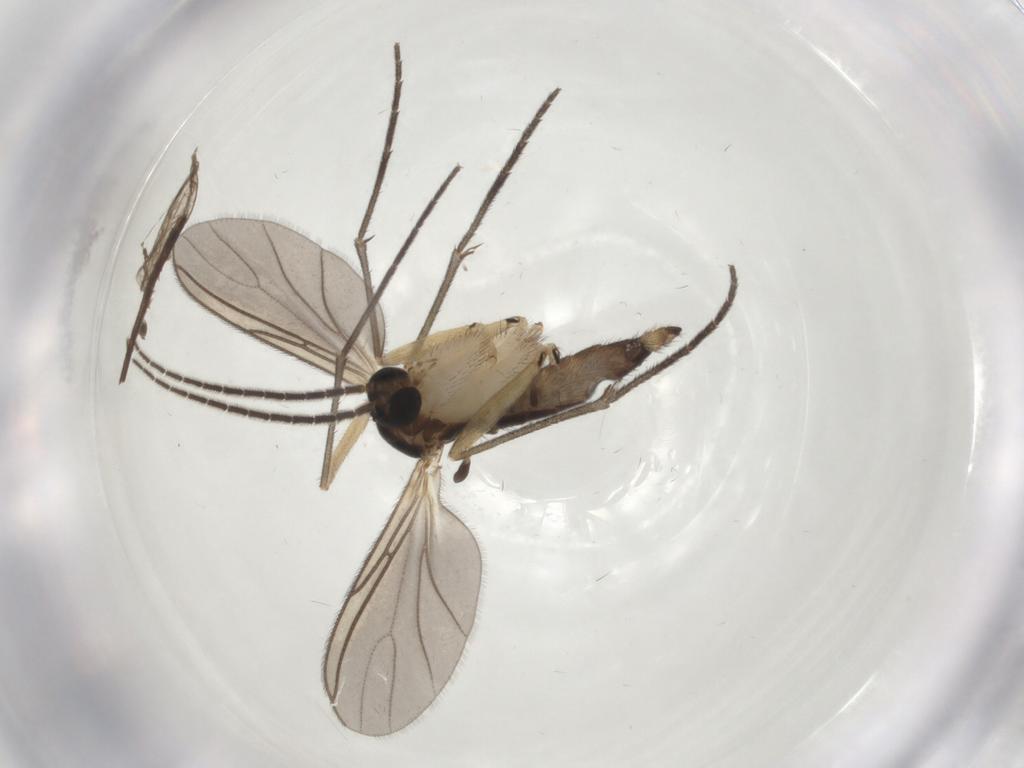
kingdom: Animalia
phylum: Arthropoda
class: Insecta
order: Diptera
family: Sciaridae
